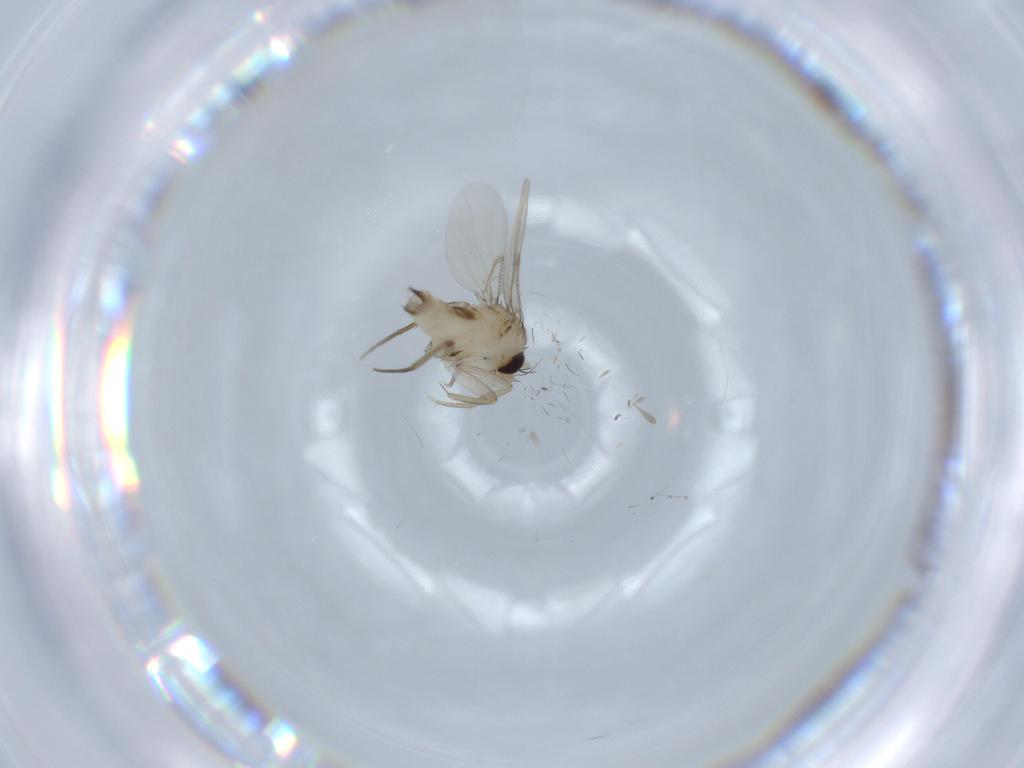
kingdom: Animalia
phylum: Arthropoda
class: Insecta
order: Diptera
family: Phoridae
